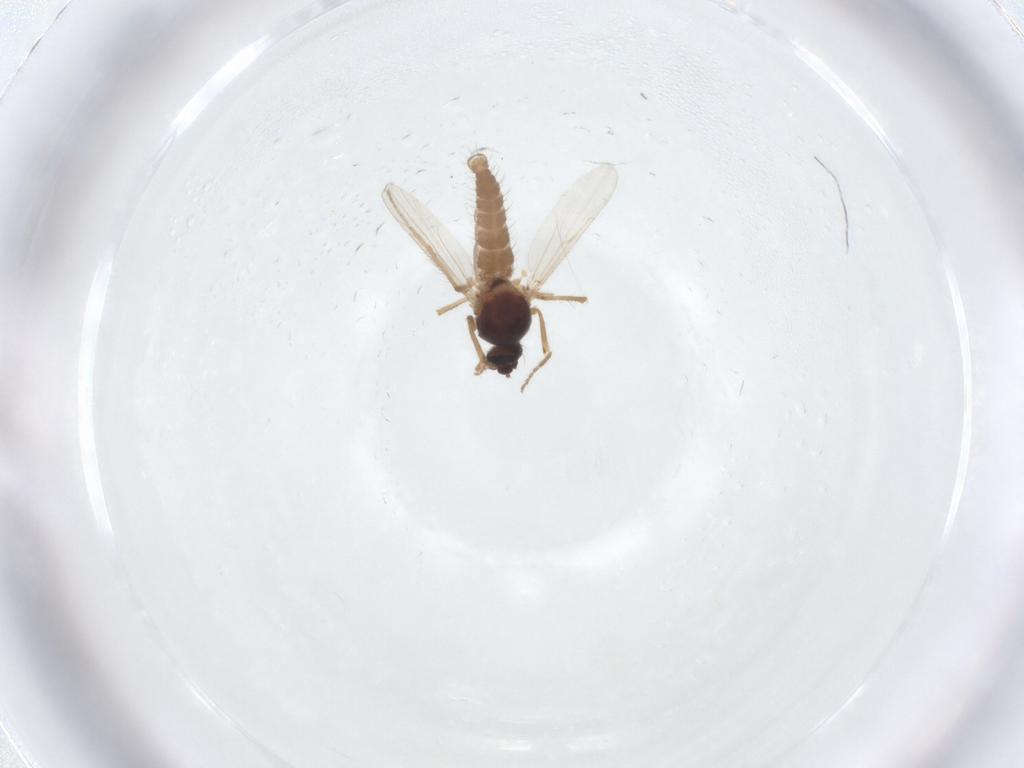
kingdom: Animalia
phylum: Arthropoda
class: Insecta
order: Diptera
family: Ceratopogonidae
